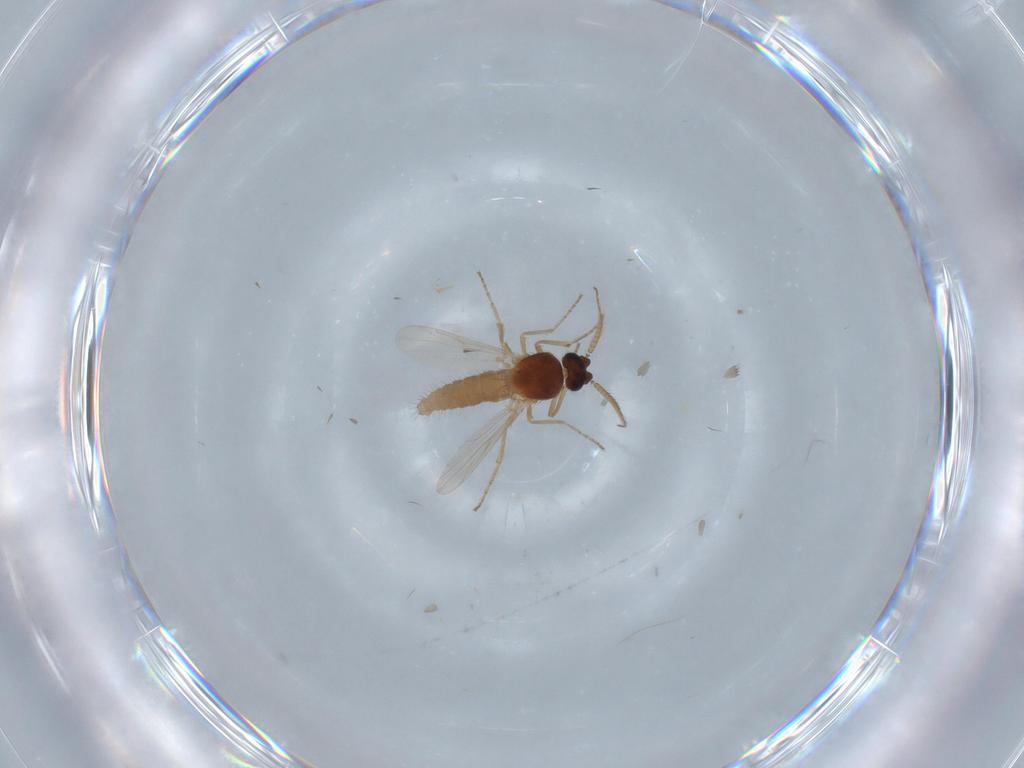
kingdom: Animalia
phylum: Arthropoda
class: Insecta
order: Diptera
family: Ceratopogonidae
